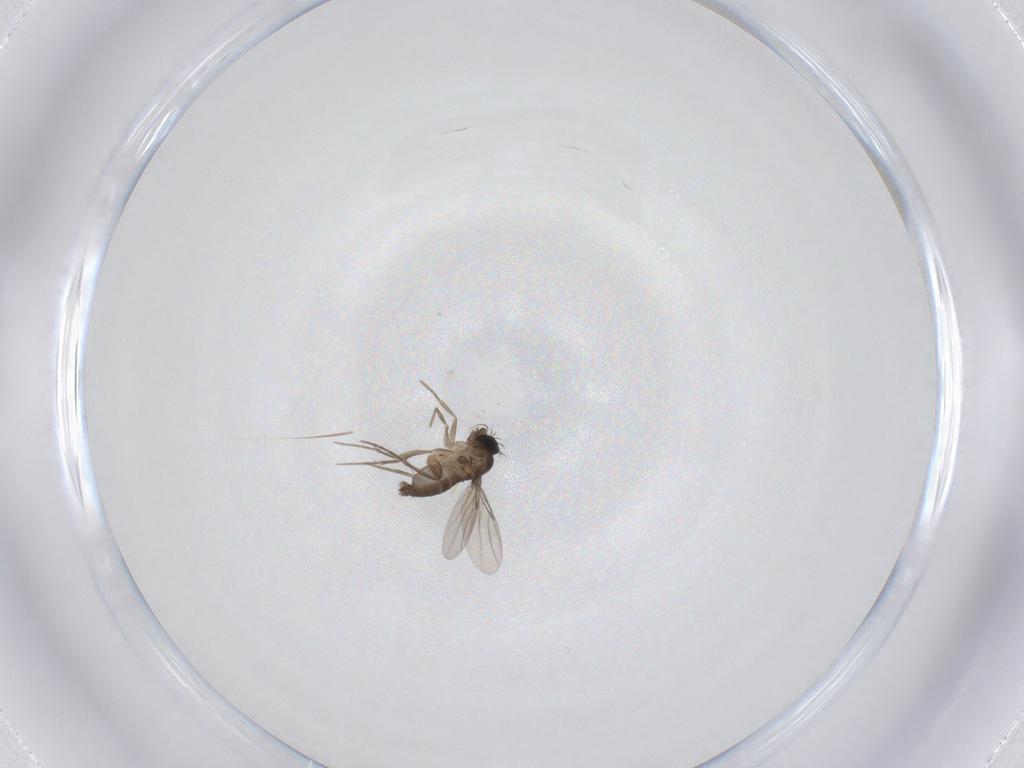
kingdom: Animalia
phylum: Arthropoda
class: Insecta
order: Diptera
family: Phoridae
